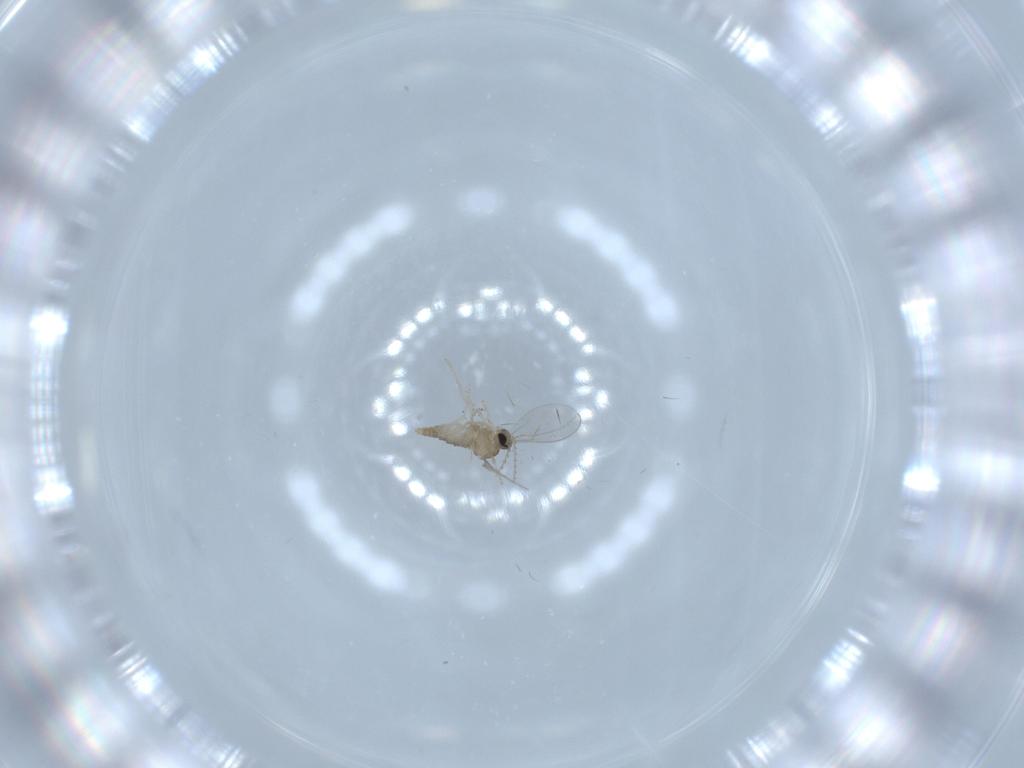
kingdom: Animalia
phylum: Arthropoda
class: Insecta
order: Diptera
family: Cecidomyiidae
